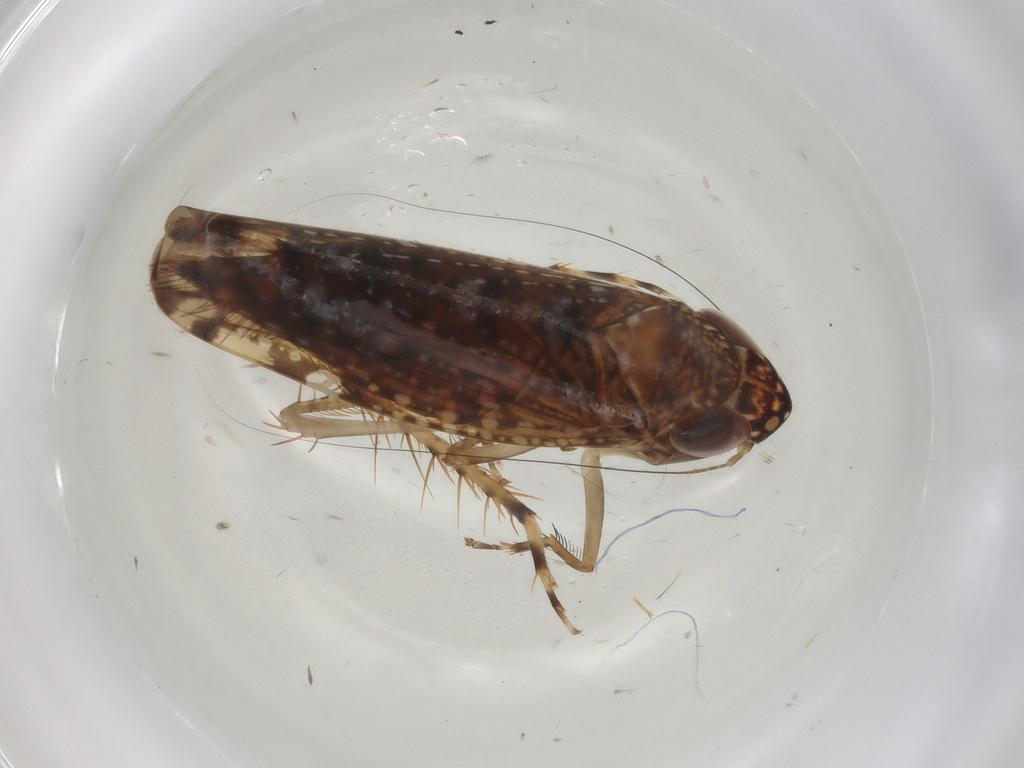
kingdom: Animalia
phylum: Arthropoda
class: Insecta
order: Hemiptera
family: Cicadellidae
